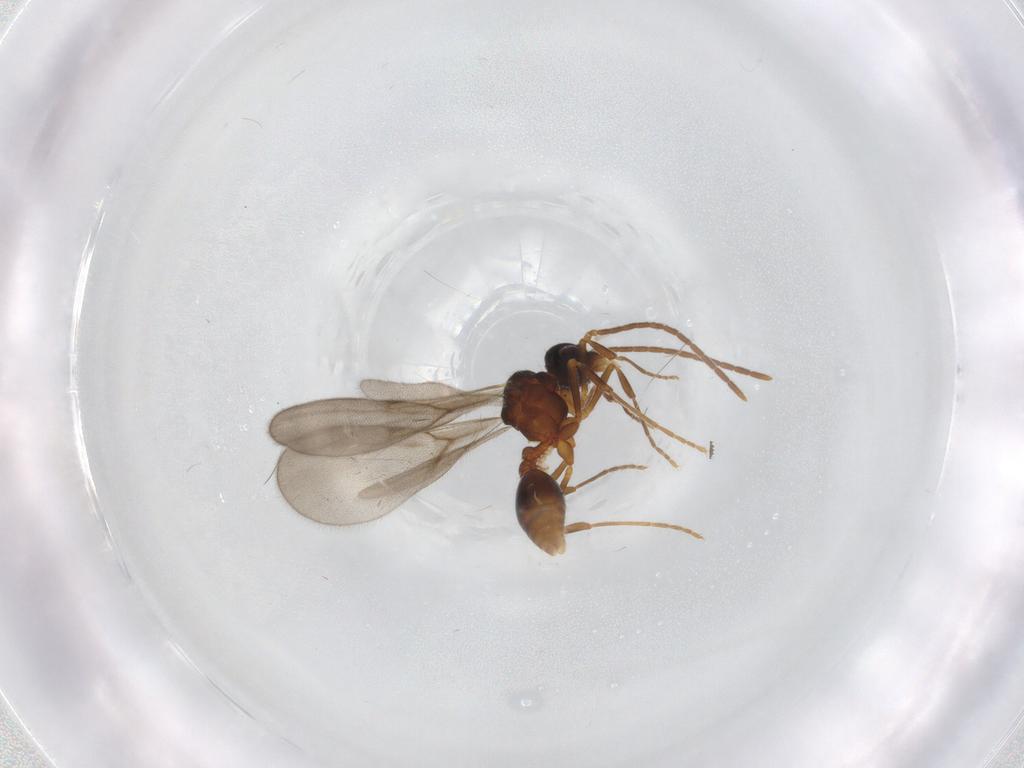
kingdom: Animalia
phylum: Arthropoda
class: Insecta
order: Hymenoptera
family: Formicidae
